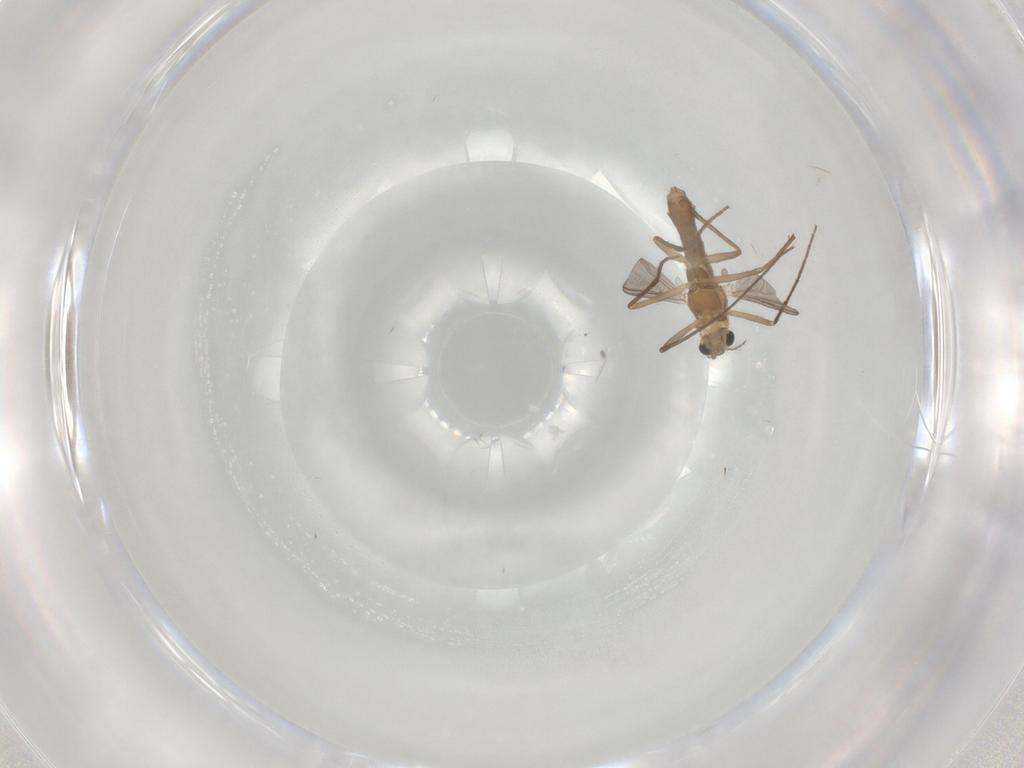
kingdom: Animalia
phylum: Arthropoda
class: Insecta
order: Diptera
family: Chironomidae
